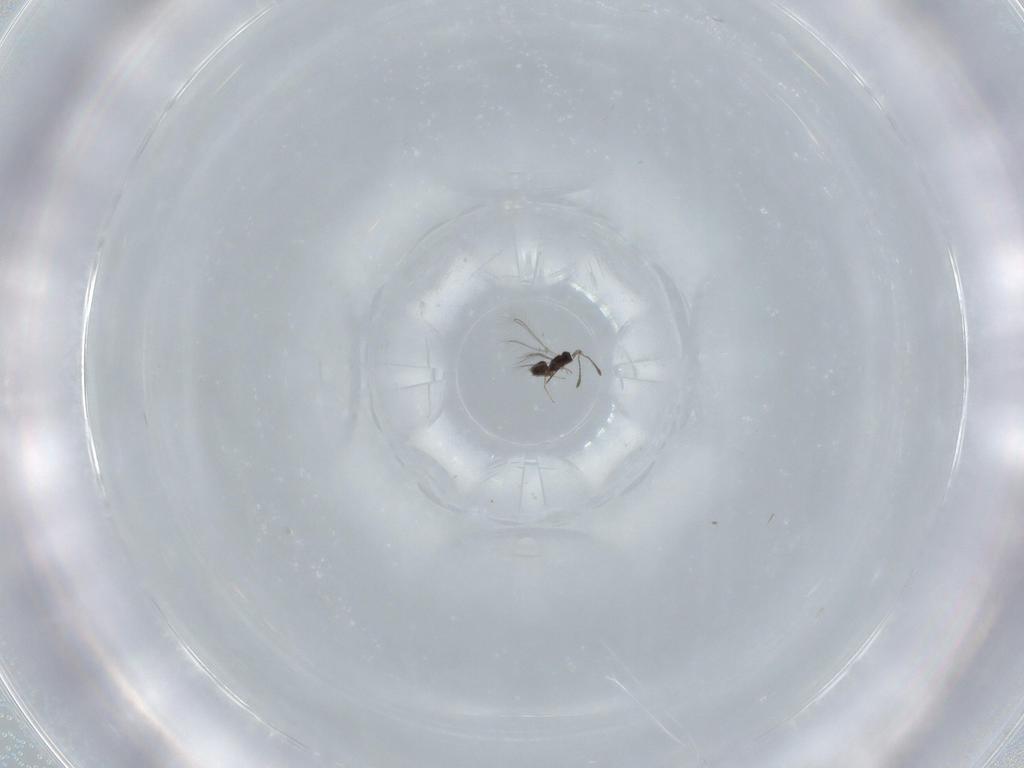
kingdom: Animalia
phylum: Arthropoda
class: Insecta
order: Hymenoptera
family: Mymaridae
